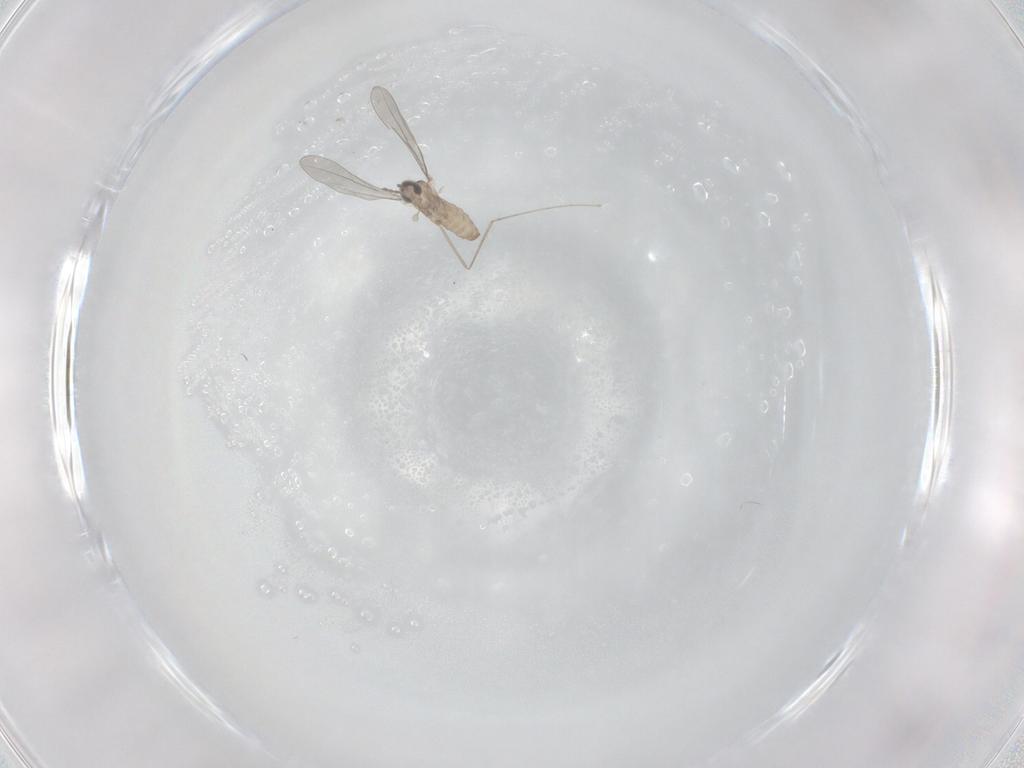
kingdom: Animalia
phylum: Arthropoda
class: Insecta
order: Diptera
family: Cecidomyiidae
